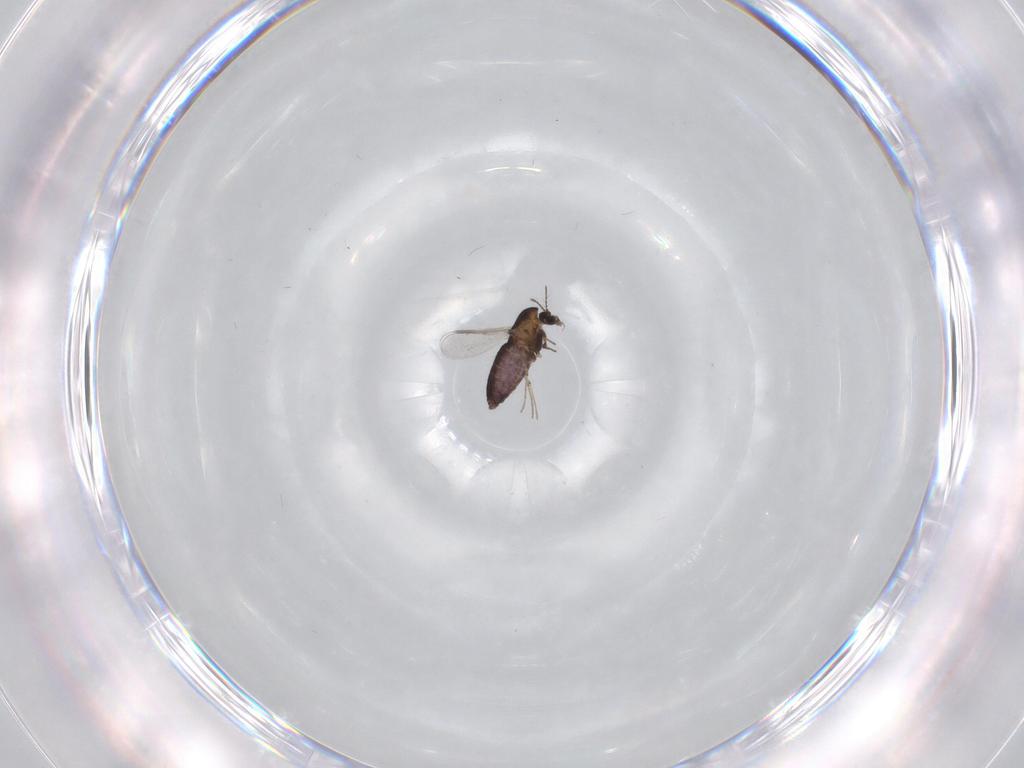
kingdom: Animalia
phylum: Arthropoda
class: Insecta
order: Diptera
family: Chironomidae
